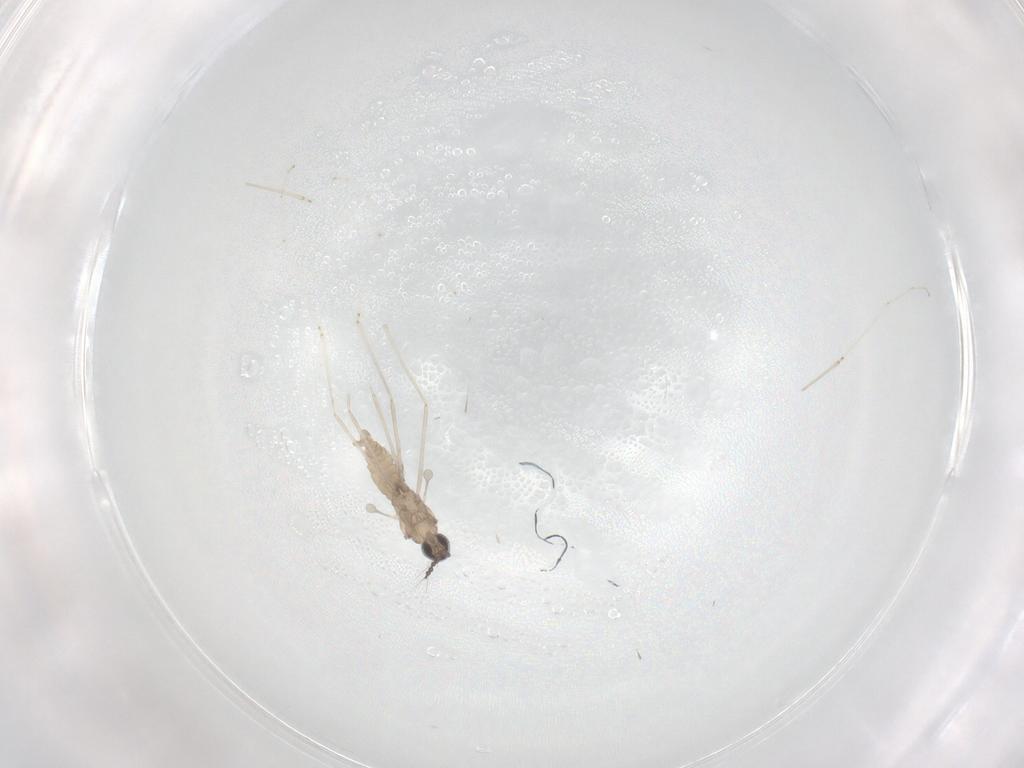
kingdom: Animalia
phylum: Arthropoda
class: Insecta
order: Diptera
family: Cecidomyiidae
